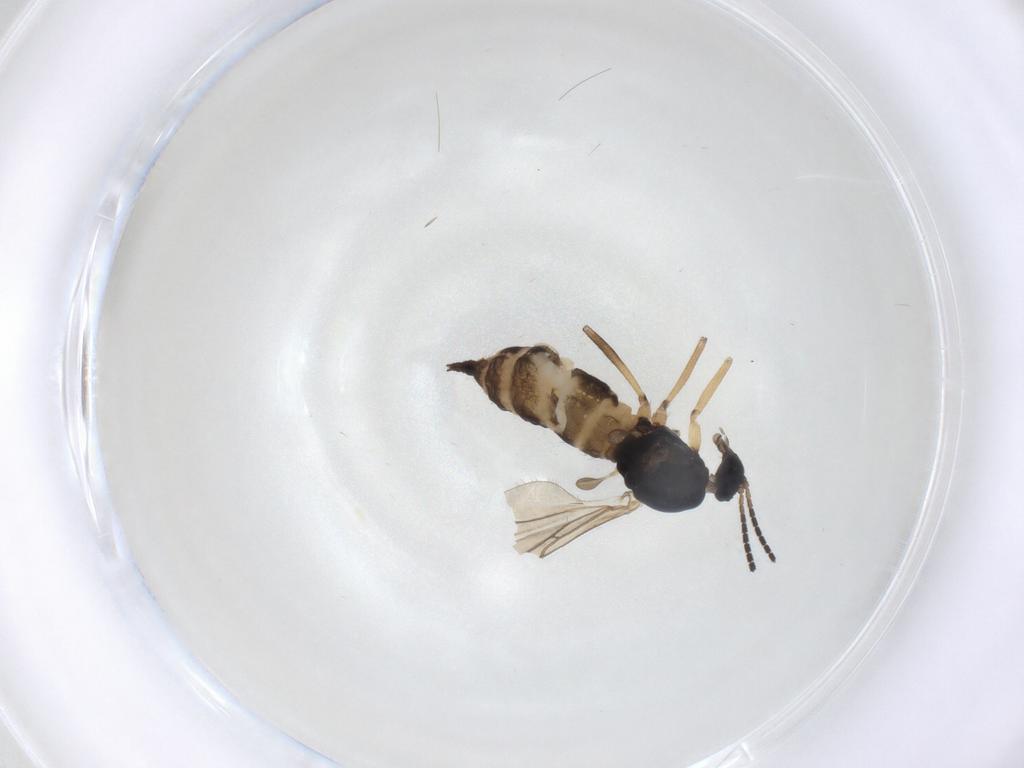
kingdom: Animalia
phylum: Arthropoda
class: Insecta
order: Diptera
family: Sciaridae
